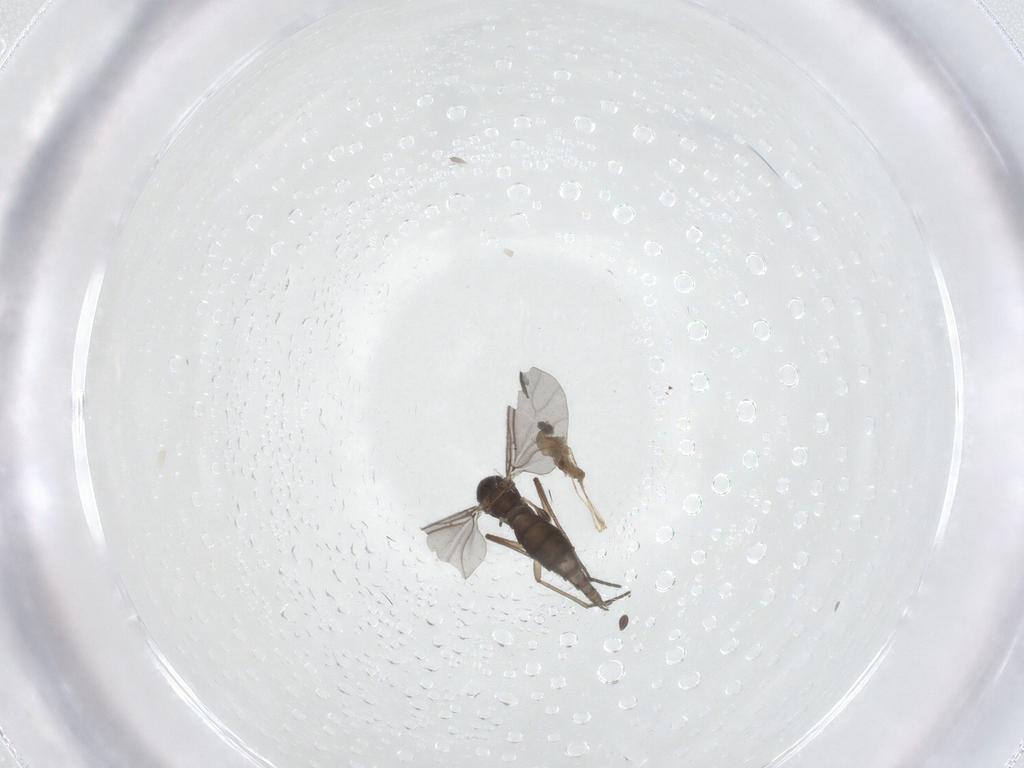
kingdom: Animalia
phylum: Arthropoda
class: Insecta
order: Diptera
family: Sciaridae
